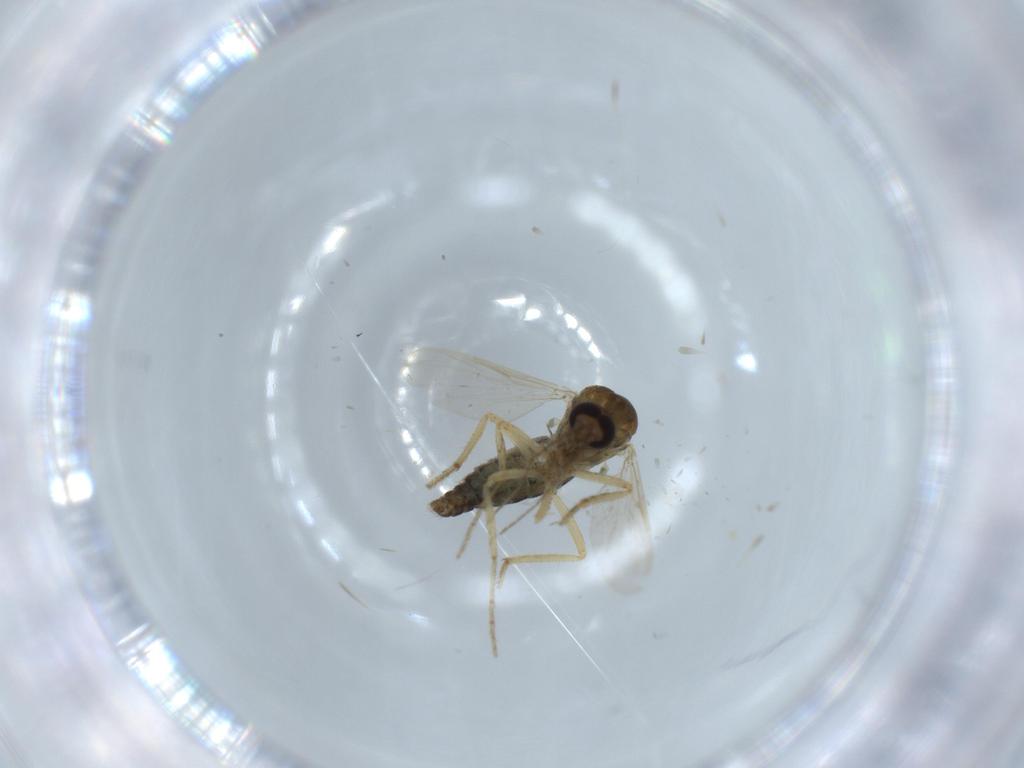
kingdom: Animalia
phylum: Arthropoda
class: Insecta
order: Diptera
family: Ceratopogonidae
